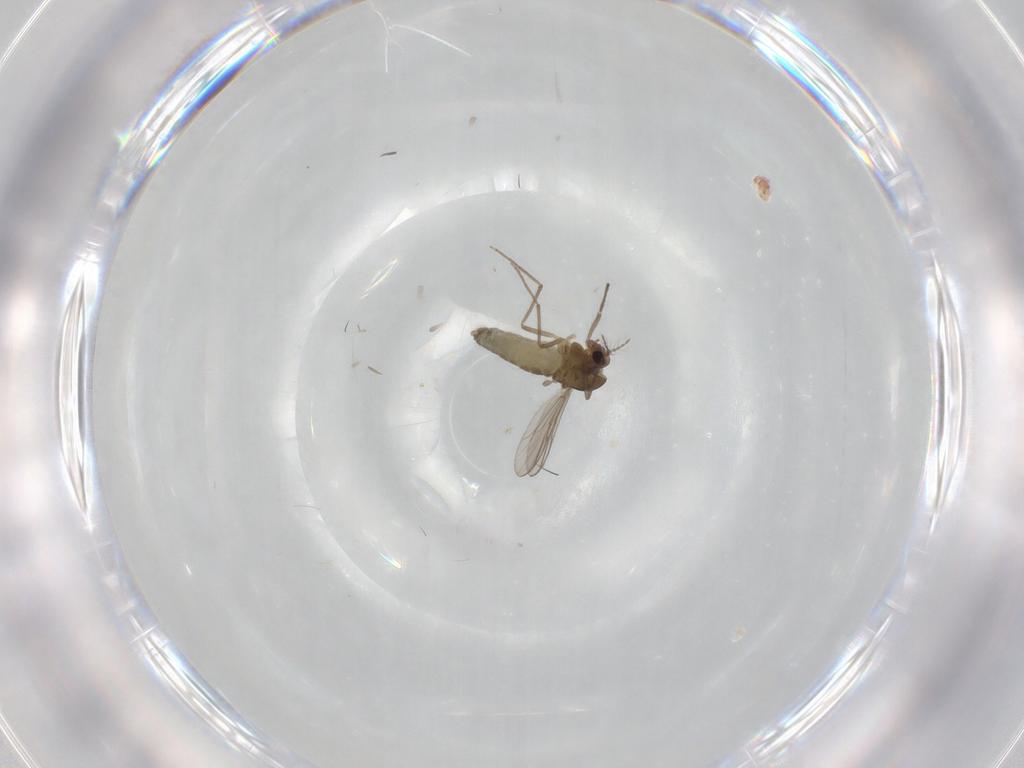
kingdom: Animalia
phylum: Arthropoda
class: Insecta
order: Diptera
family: Chironomidae
